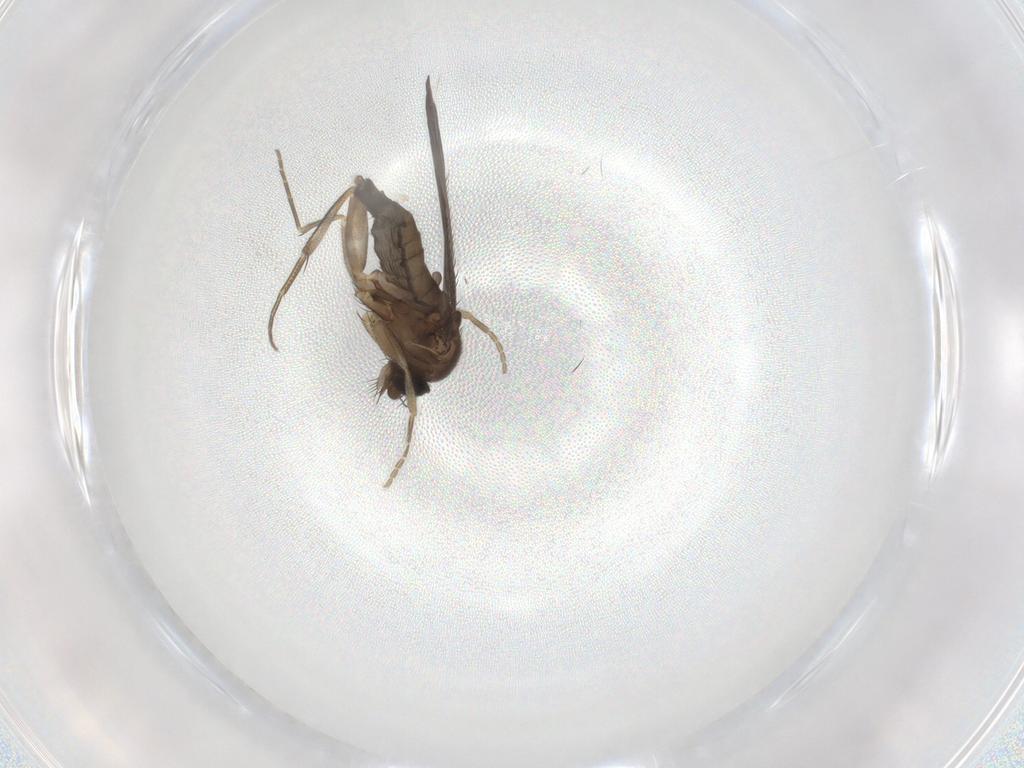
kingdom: Animalia
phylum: Arthropoda
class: Insecta
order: Diptera
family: Phoridae
